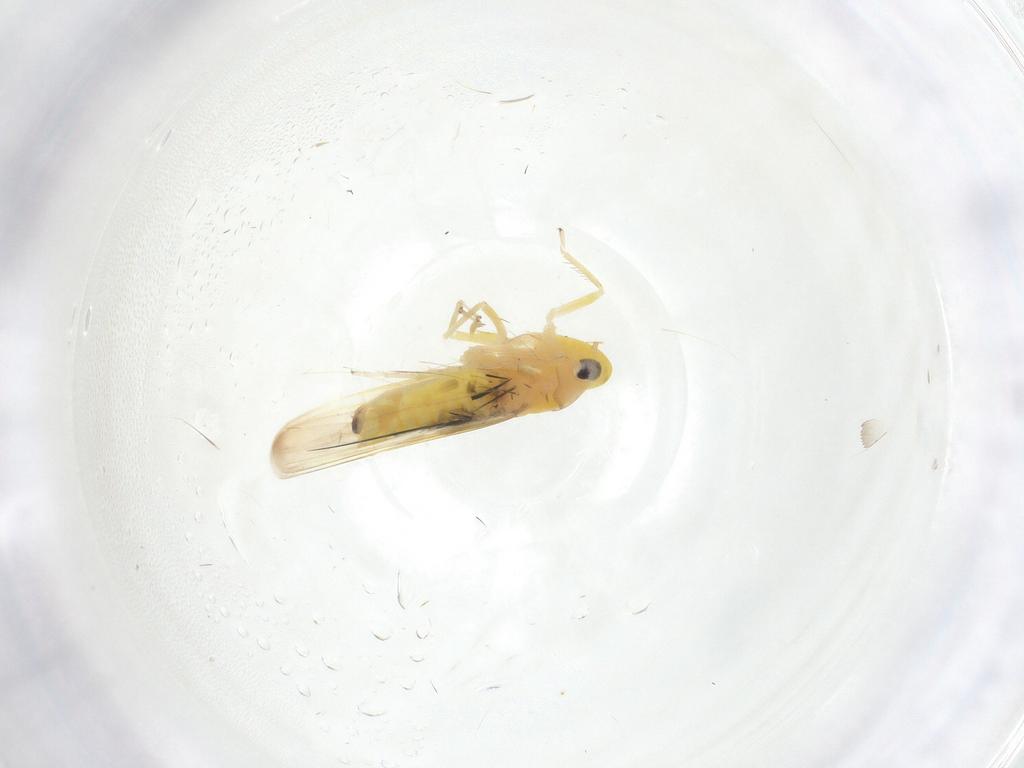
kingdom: Animalia
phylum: Arthropoda
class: Insecta
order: Hemiptera
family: Cicadellidae
